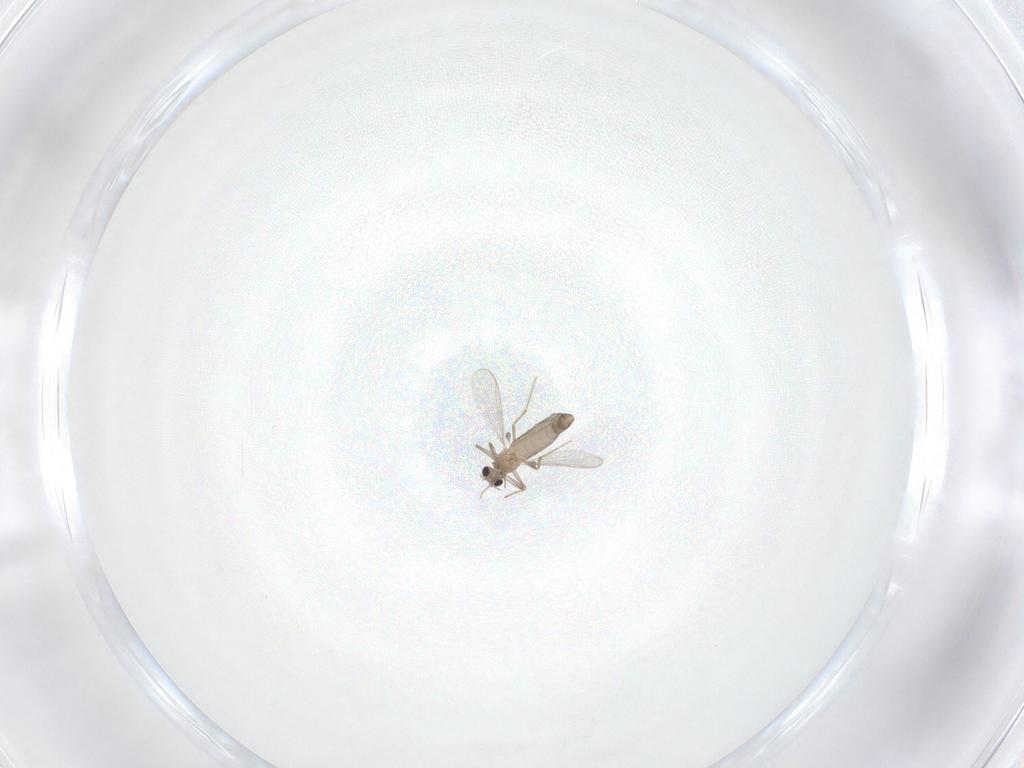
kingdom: Animalia
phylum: Arthropoda
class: Insecta
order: Diptera
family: Chironomidae
